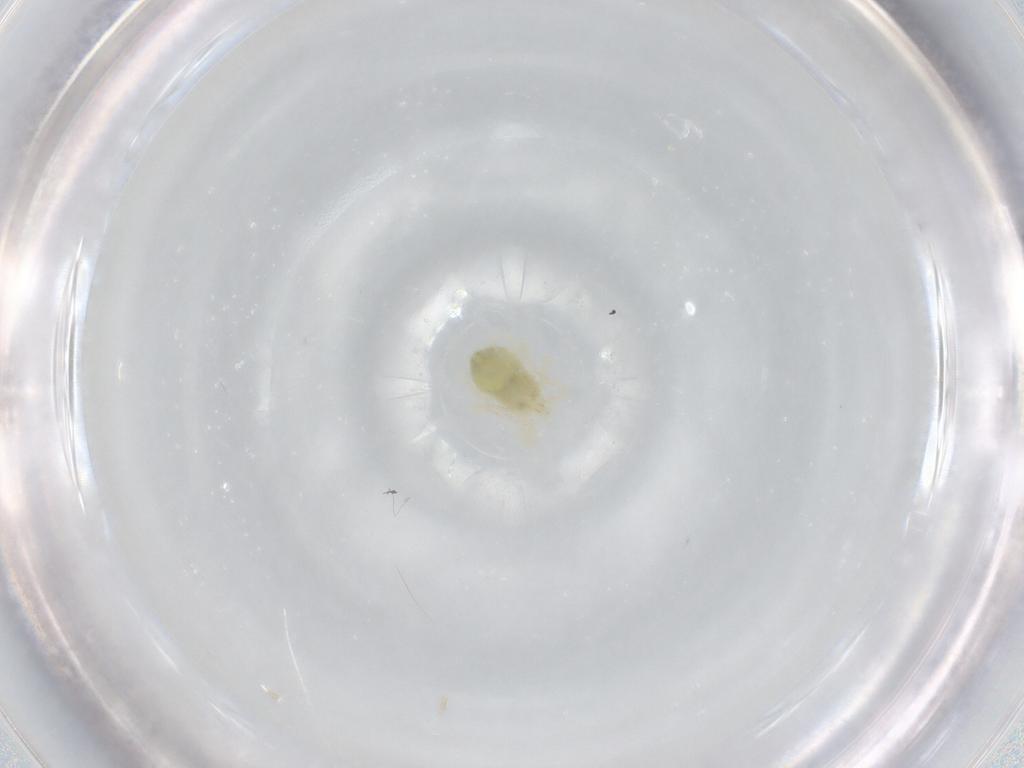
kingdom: Animalia
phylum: Arthropoda
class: Arachnida
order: Trombidiformes
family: Anystidae
